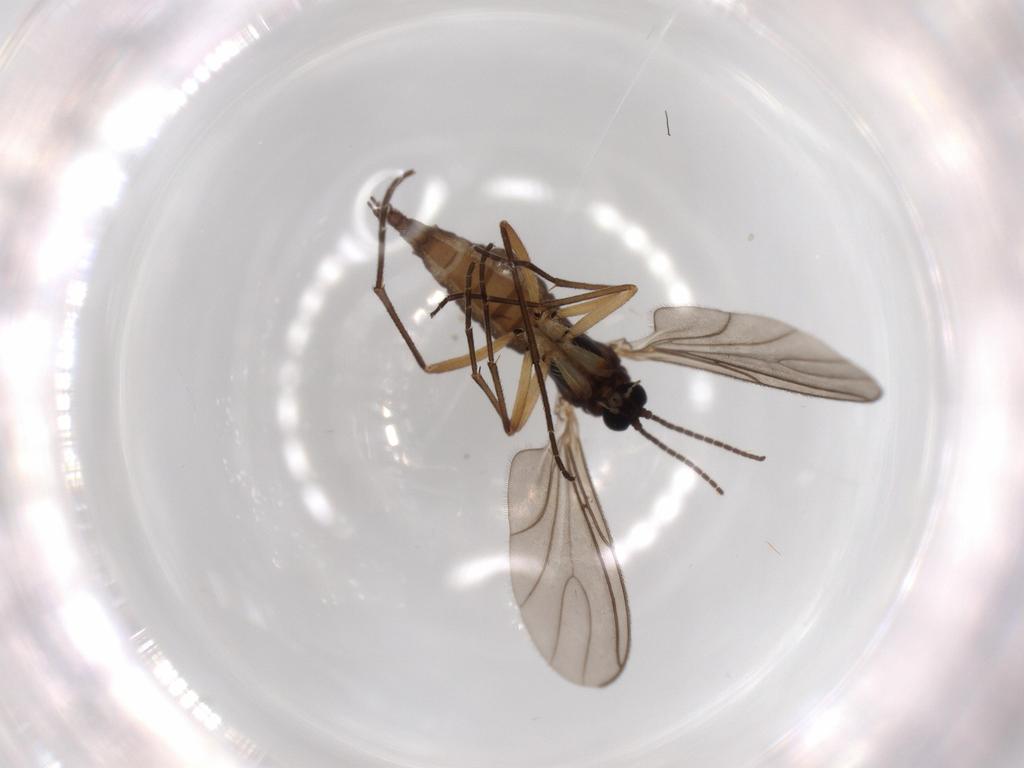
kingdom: Animalia
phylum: Arthropoda
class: Insecta
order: Diptera
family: Sciaridae
